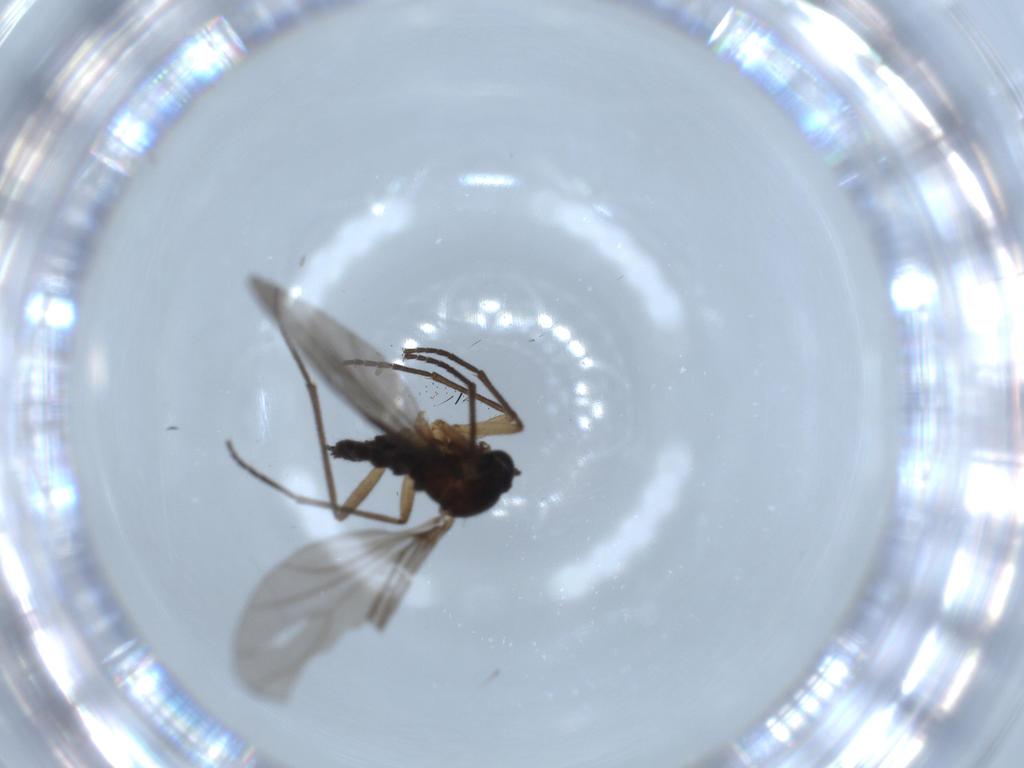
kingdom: Animalia
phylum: Arthropoda
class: Insecta
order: Diptera
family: Drosophilidae
